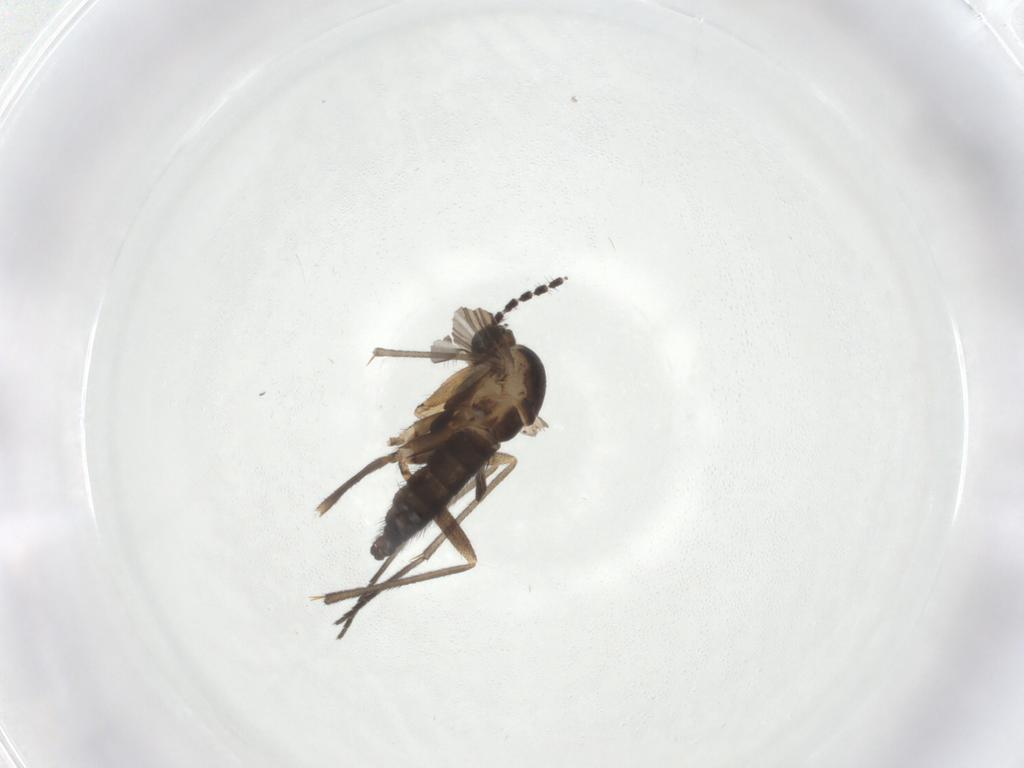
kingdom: Animalia
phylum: Arthropoda
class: Insecta
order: Diptera
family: Sciaridae
